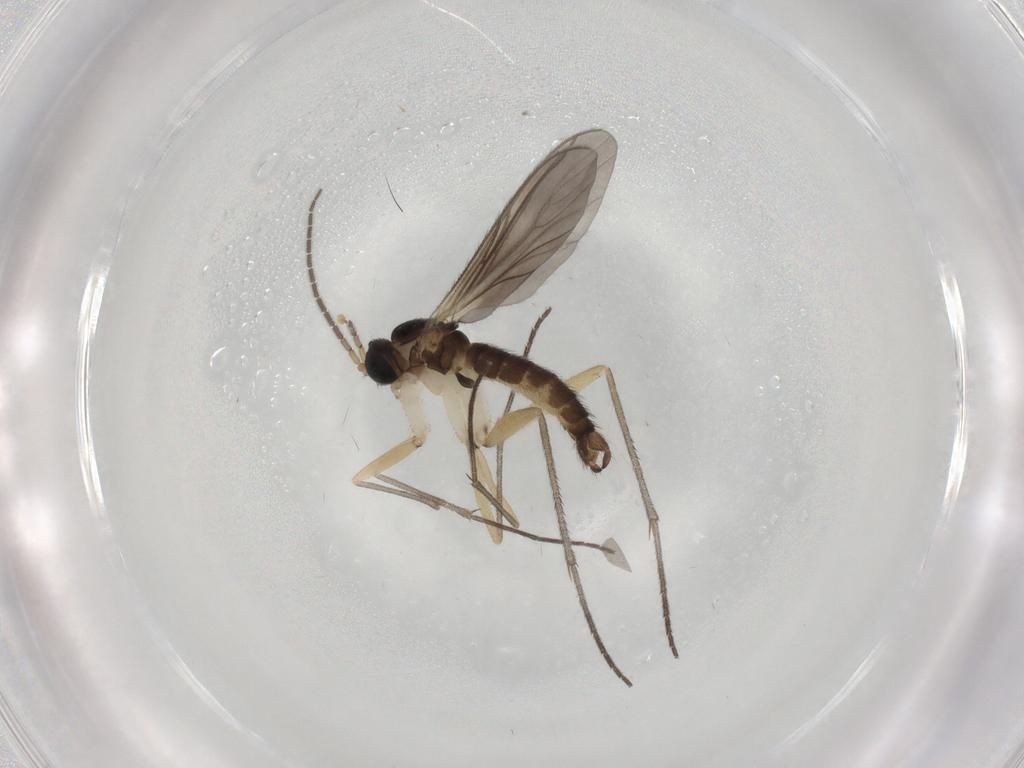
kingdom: Animalia
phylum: Arthropoda
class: Insecta
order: Diptera
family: Sciaridae
